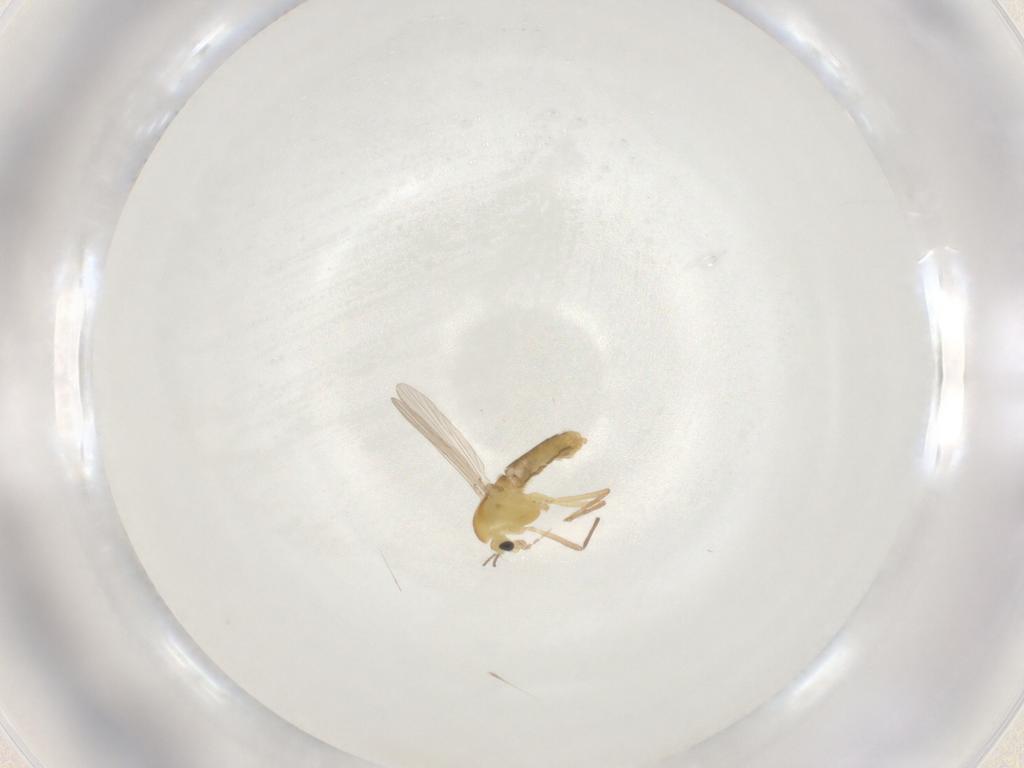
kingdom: Animalia
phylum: Arthropoda
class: Insecta
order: Diptera
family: Chironomidae
